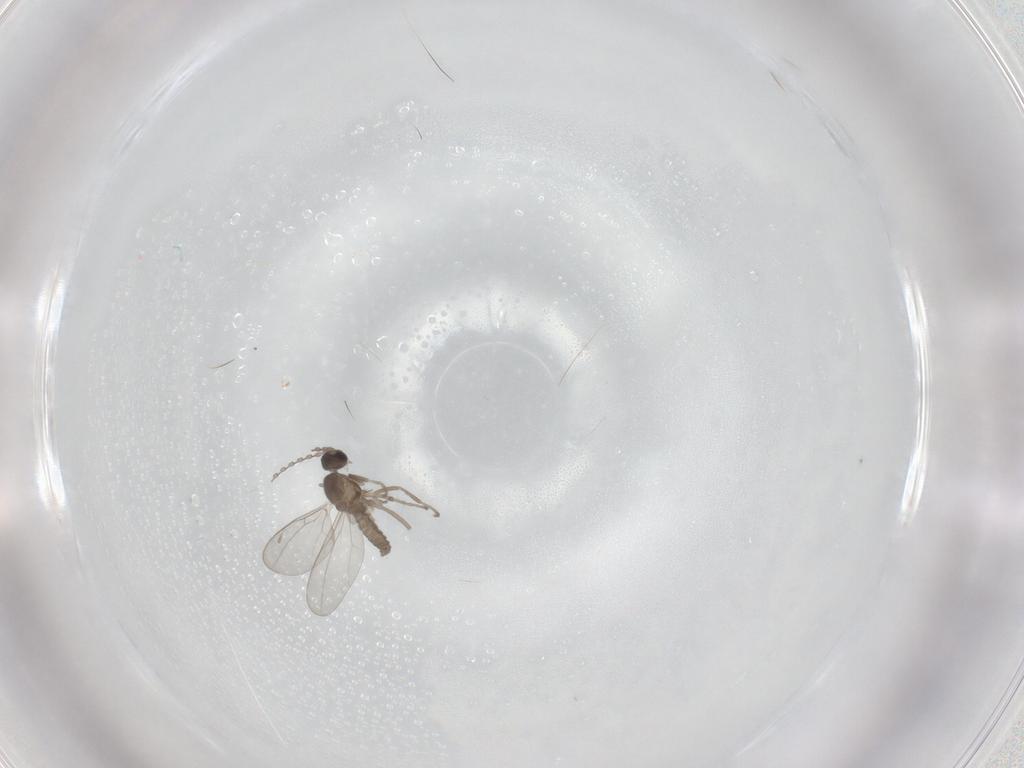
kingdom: Animalia
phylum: Arthropoda
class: Insecta
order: Diptera
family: Cecidomyiidae
